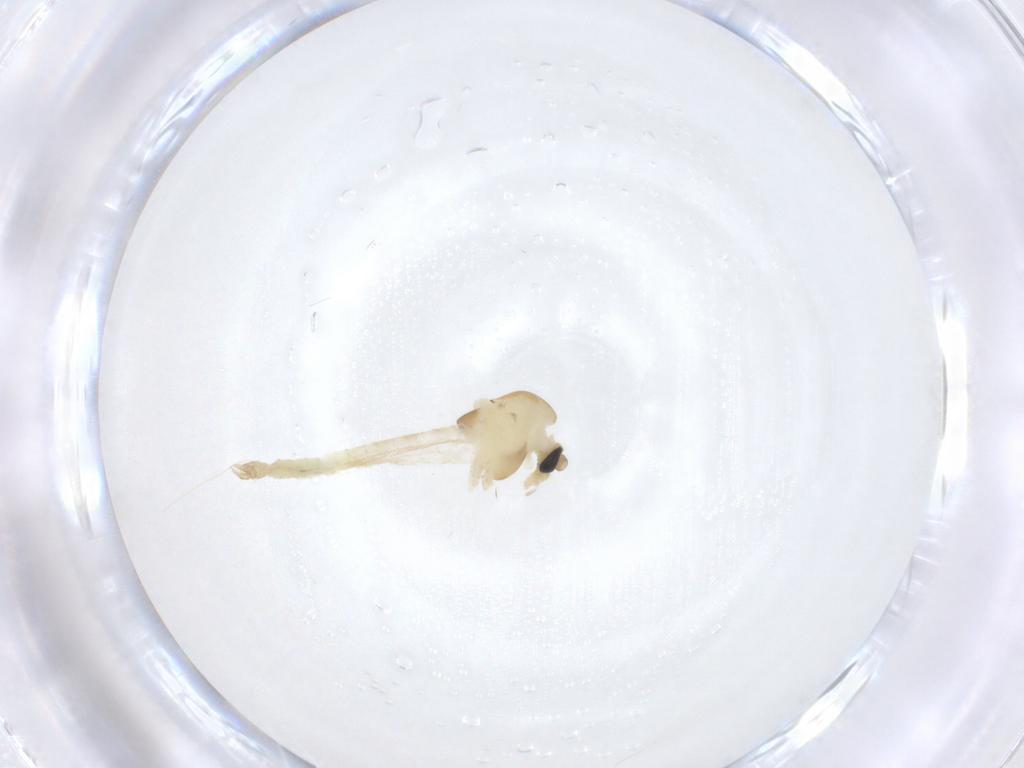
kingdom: Animalia
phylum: Arthropoda
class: Insecta
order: Diptera
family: Chironomidae
